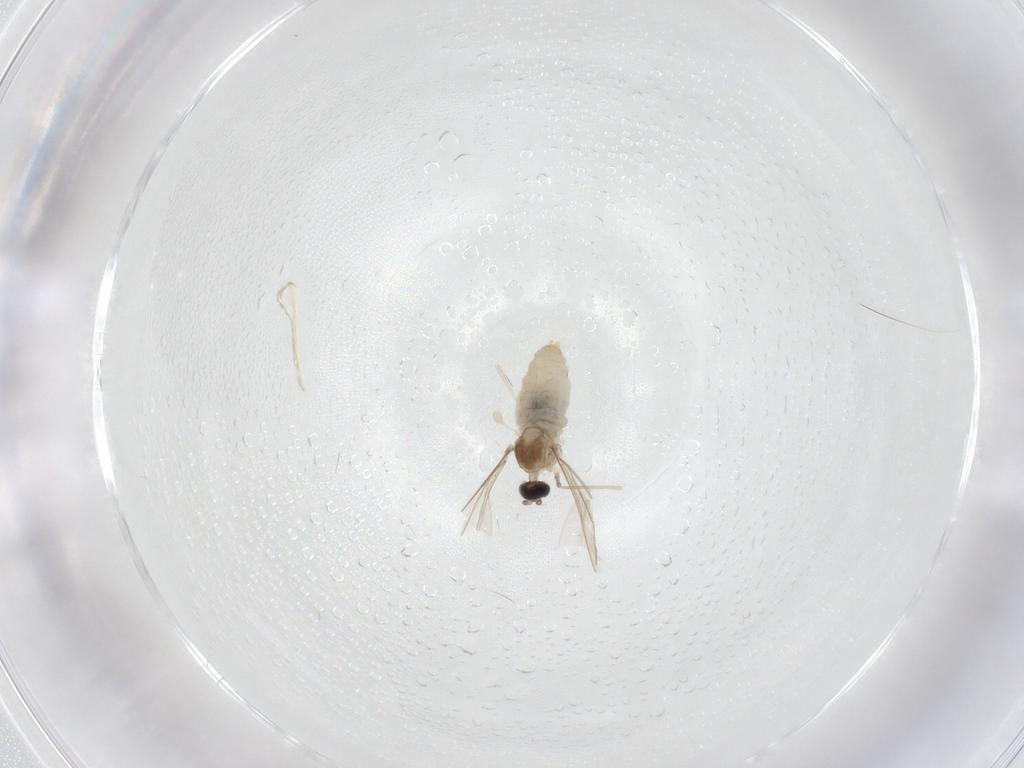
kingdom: Animalia
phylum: Arthropoda
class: Insecta
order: Diptera
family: Cecidomyiidae
